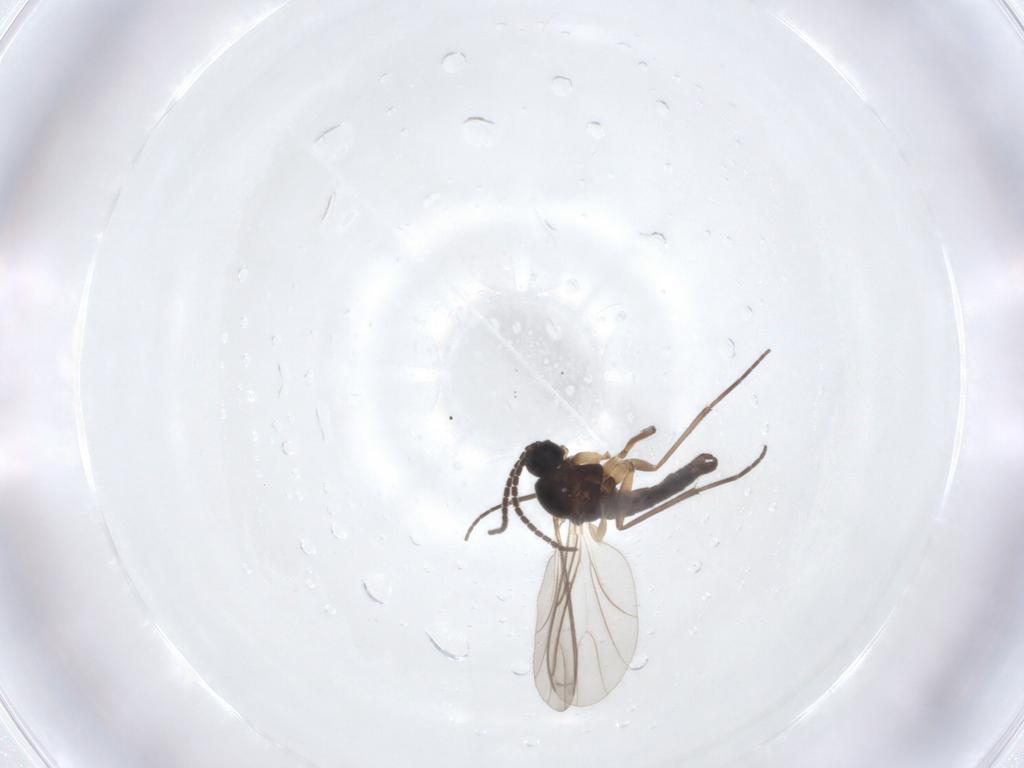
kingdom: Animalia
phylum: Arthropoda
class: Insecta
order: Diptera
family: Sciaridae
